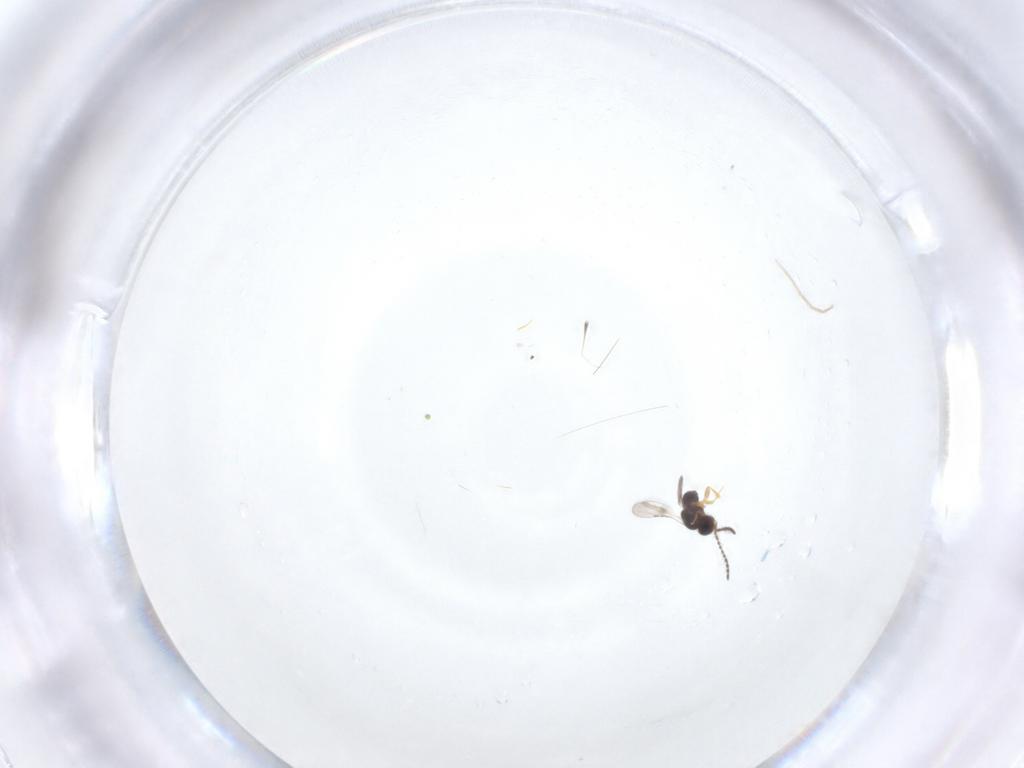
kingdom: Animalia
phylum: Arthropoda
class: Insecta
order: Diptera
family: Chironomidae
